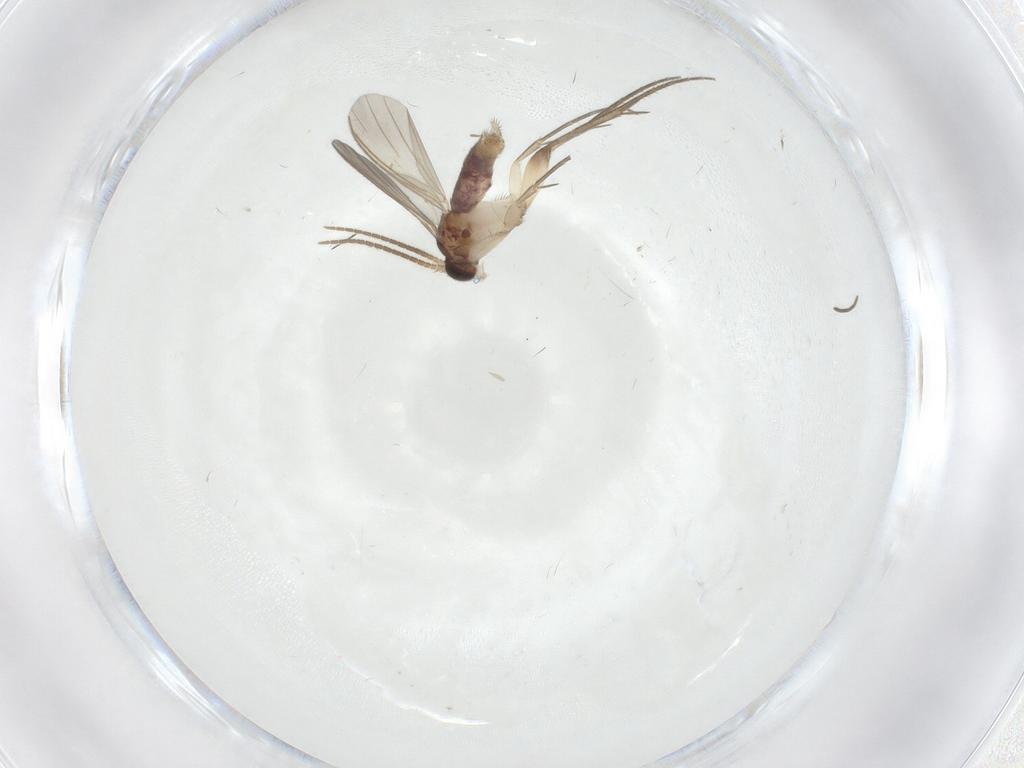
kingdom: Animalia
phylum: Arthropoda
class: Insecta
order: Diptera
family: Mycetophilidae
